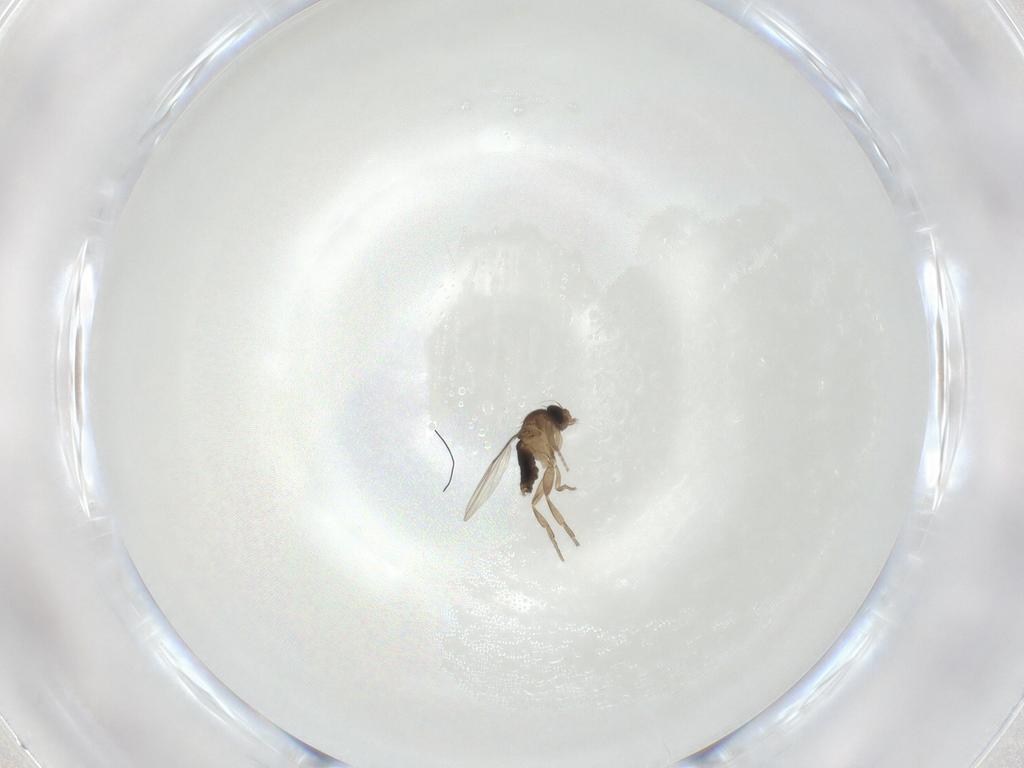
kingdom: Animalia
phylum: Arthropoda
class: Insecta
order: Diptera
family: Phoridae
